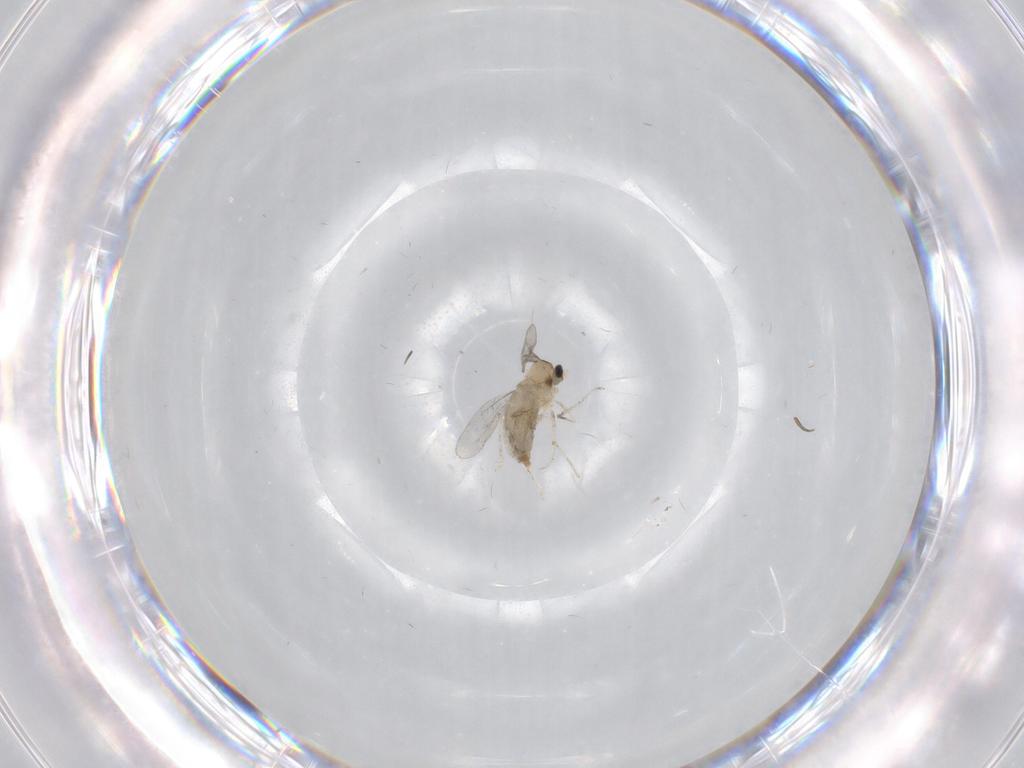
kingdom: Animalia
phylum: Arthropoda
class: Insecta
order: Diptera
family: Cecidomyiidae
